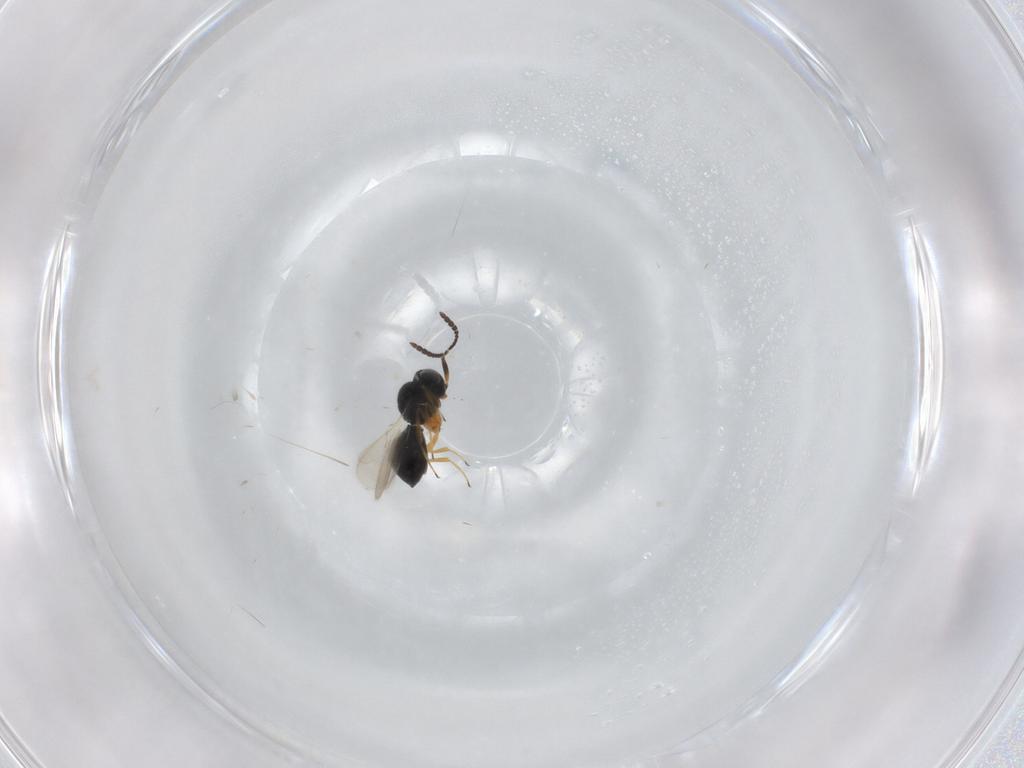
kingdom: Animalia
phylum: Arthropoda
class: Insecta
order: Hymenoptera
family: Scelionidae
